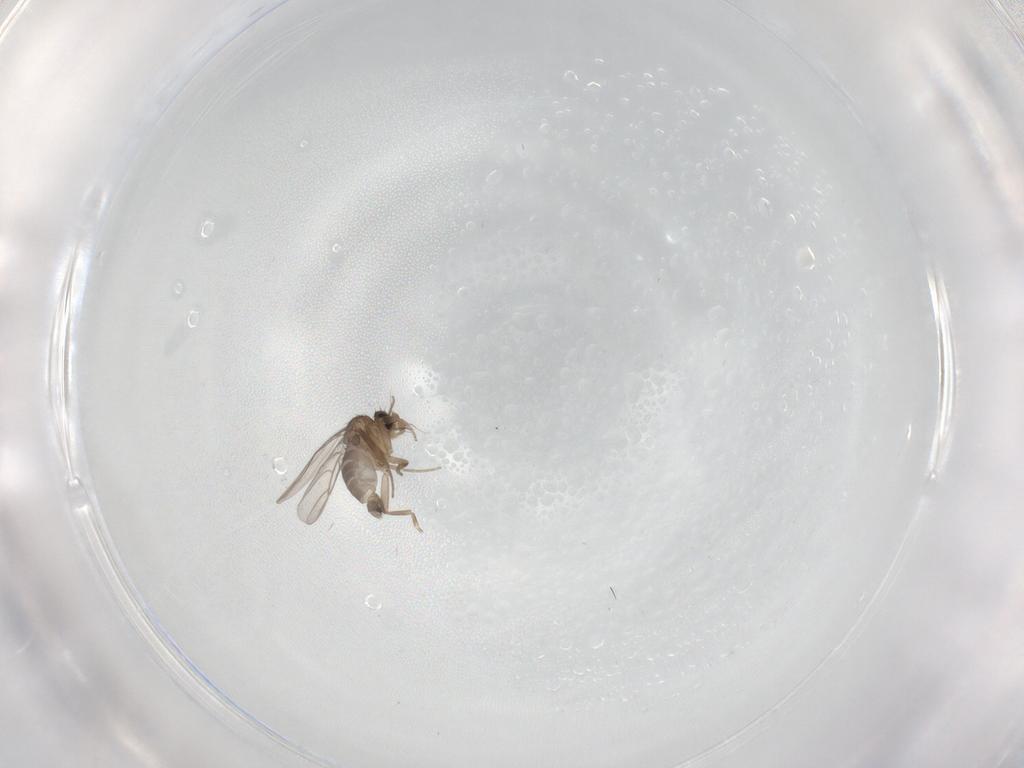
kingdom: Animalia
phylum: Arthropoda
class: Insecta
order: Diptera
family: Phoridae
